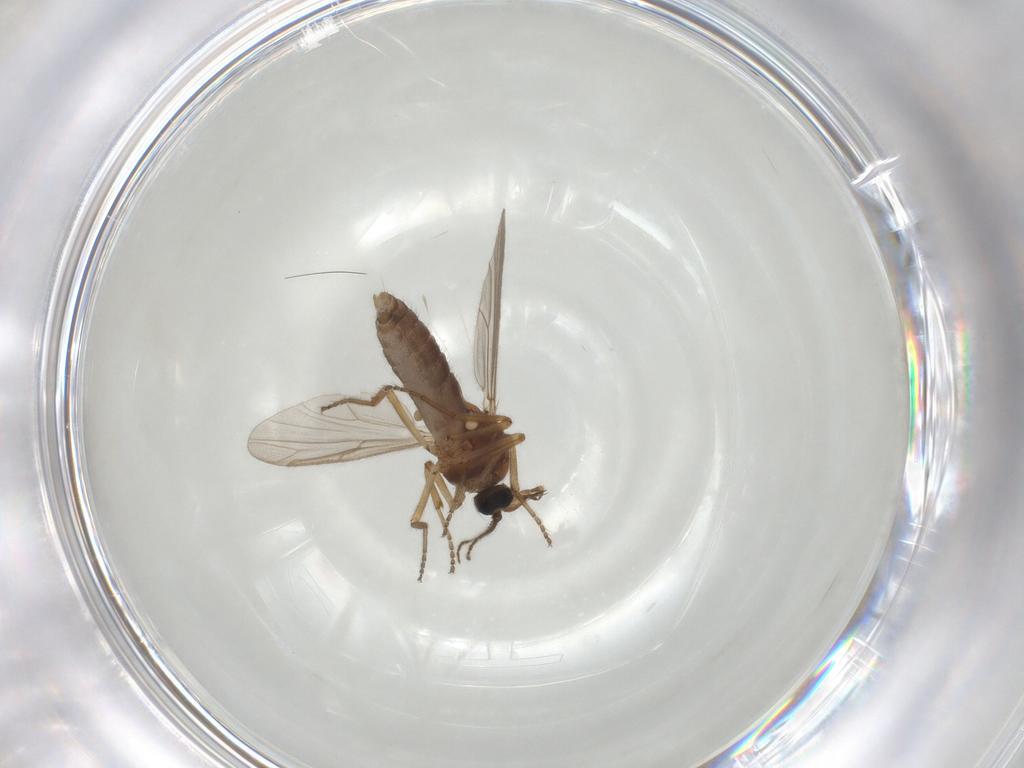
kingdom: Animalia
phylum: Arthropoda
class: Insecta
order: Diptera
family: Ceratopogonidae
